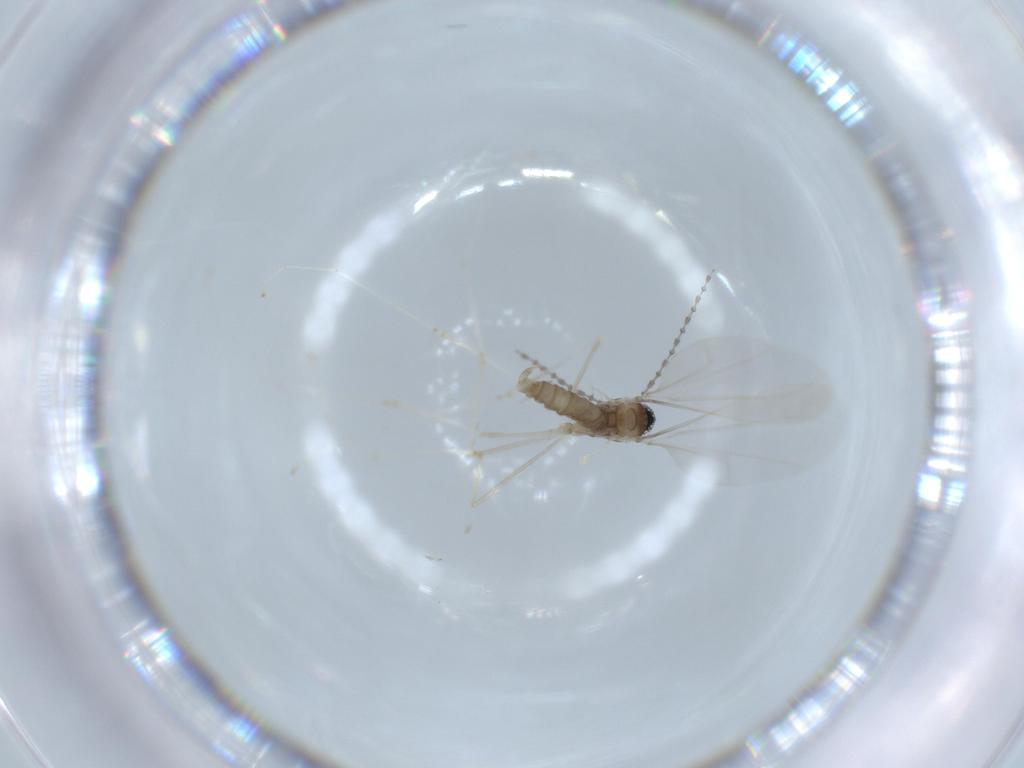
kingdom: Animalia
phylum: Arthropoda
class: Insecta
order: Diptera
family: Cecidomyiidae
